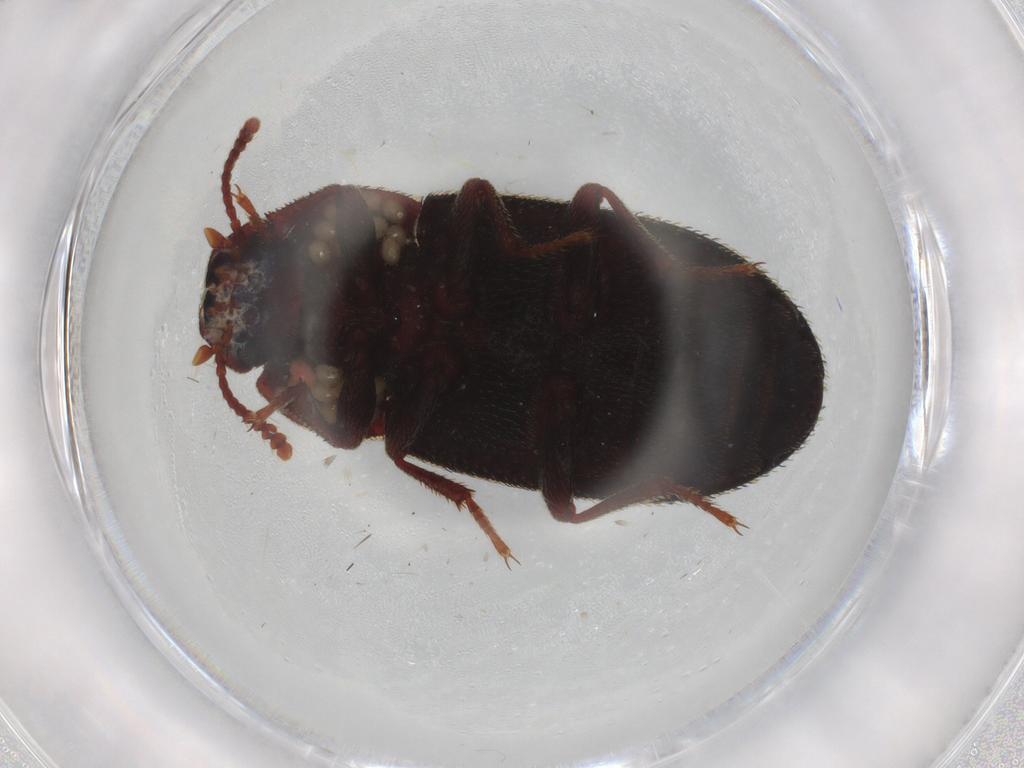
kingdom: Animalia
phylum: Arthropoda
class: Insecta
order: Coleoptera
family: Staphylinidae
